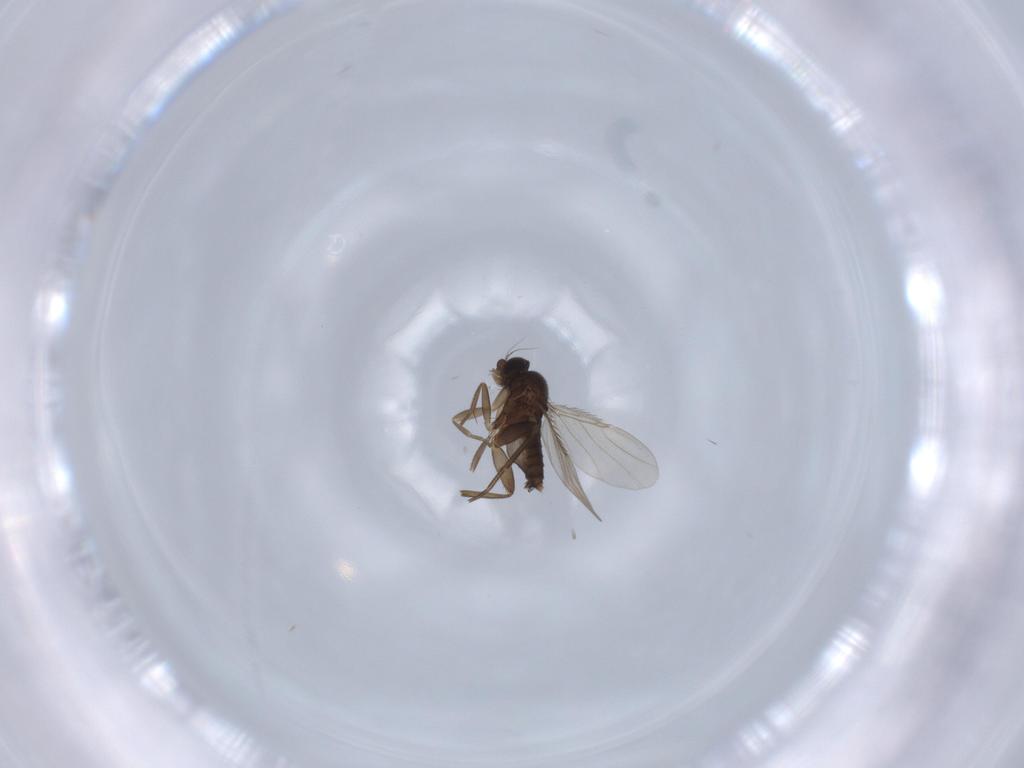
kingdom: Animalia
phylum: Arthropoda
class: Insecta
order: Diptera
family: Phoridae
